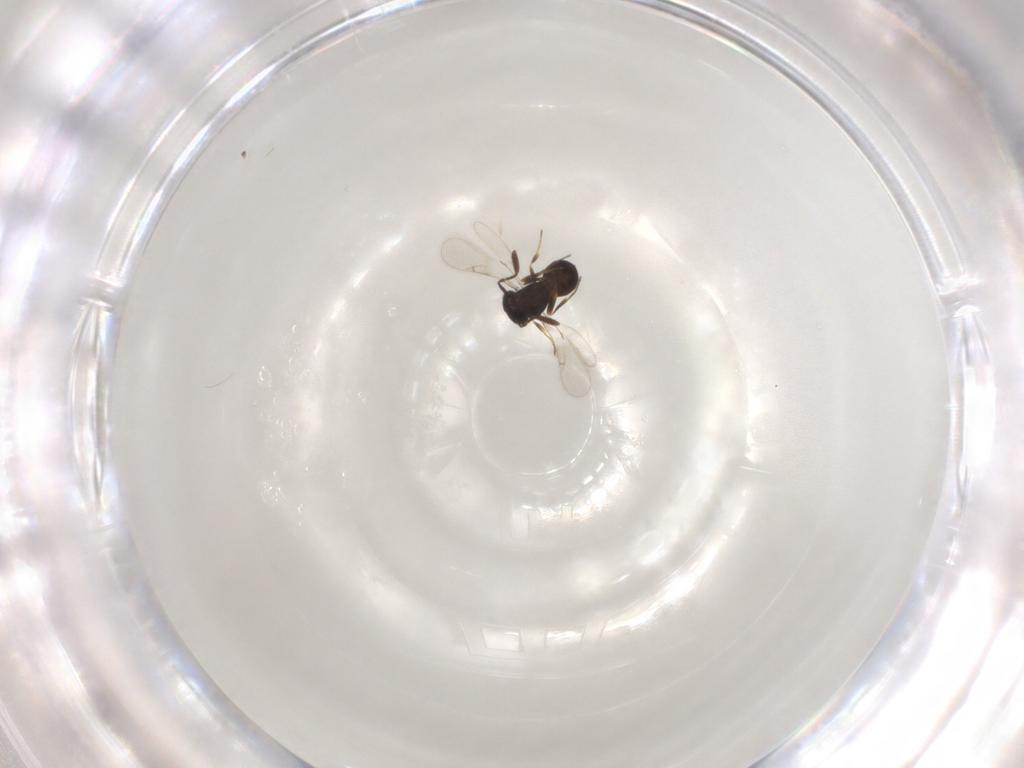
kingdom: Animalia
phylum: Arthropoda
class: Insecta
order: Hymenoptera
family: Scelionidae
